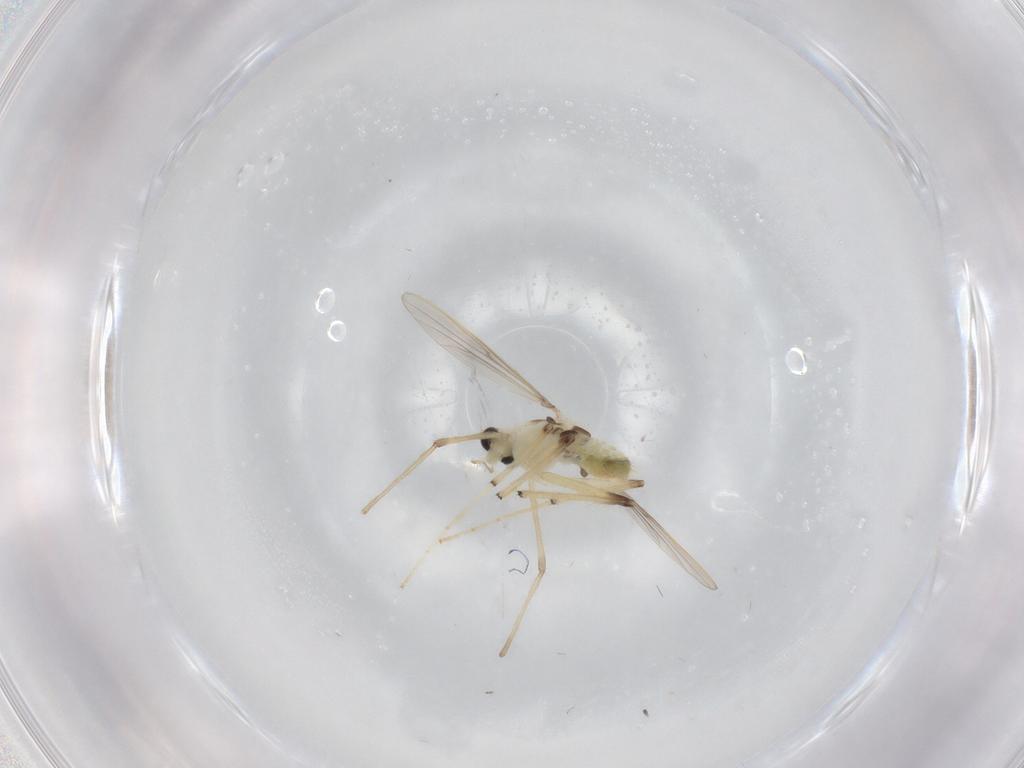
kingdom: Animalia
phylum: Arthropoda
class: Insecta
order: Diptera
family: Chironomidae
